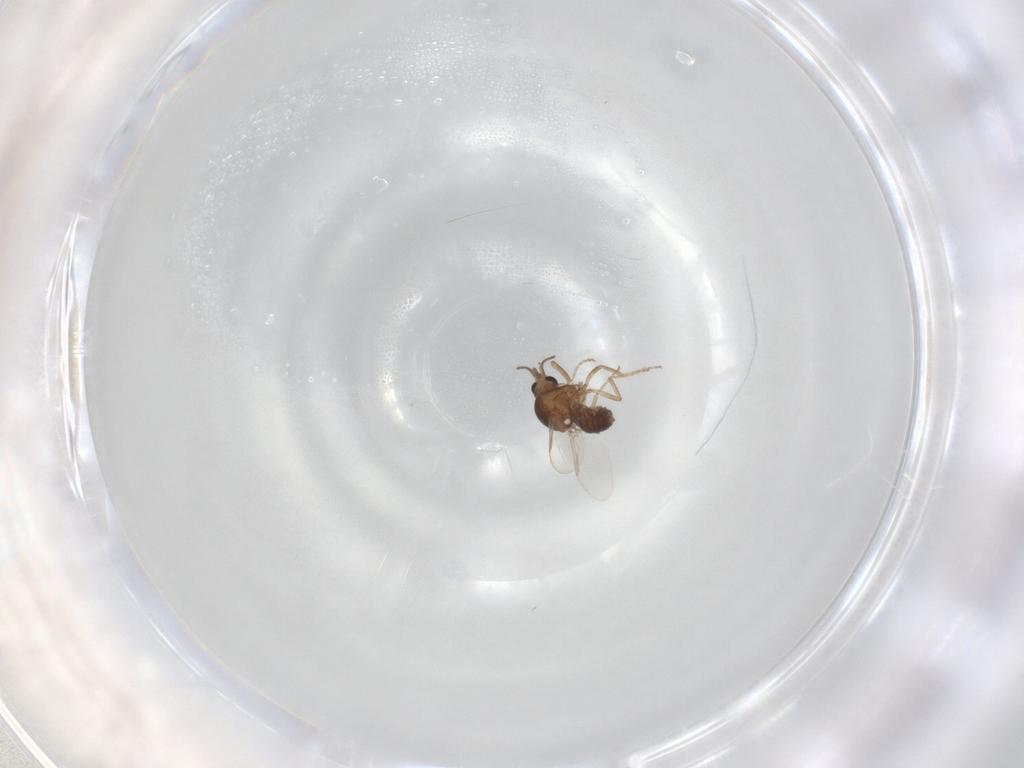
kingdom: Animalia
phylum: Arthropoda
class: Insecta
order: Diptera
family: Ceratopogonidae
